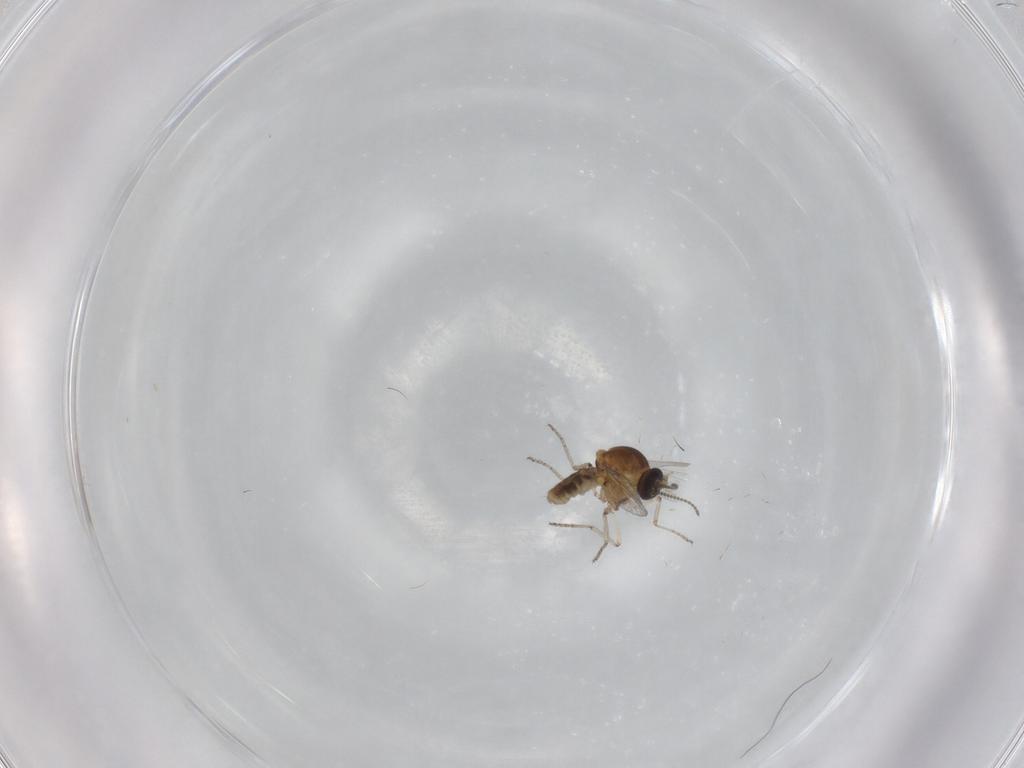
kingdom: Animalia
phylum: Arthropoda
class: Insecta
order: Diptera
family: Ceratopogonidae
